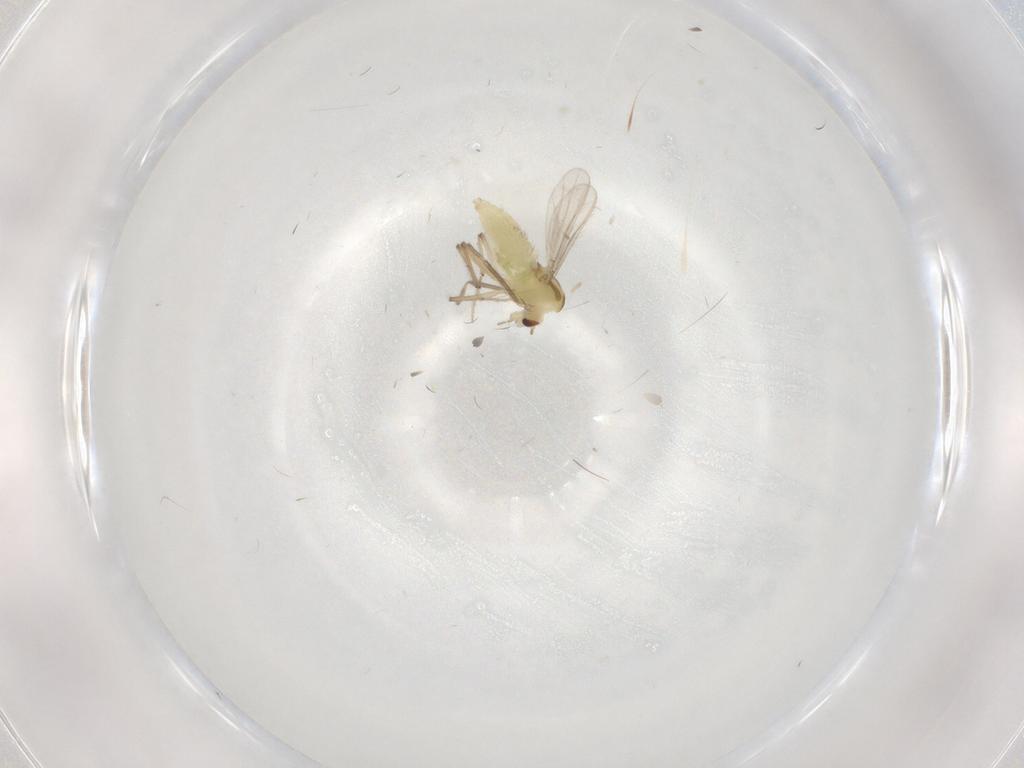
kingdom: Animalia
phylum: Arthropoda
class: Insecta
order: Diptera
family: Chironomidae
